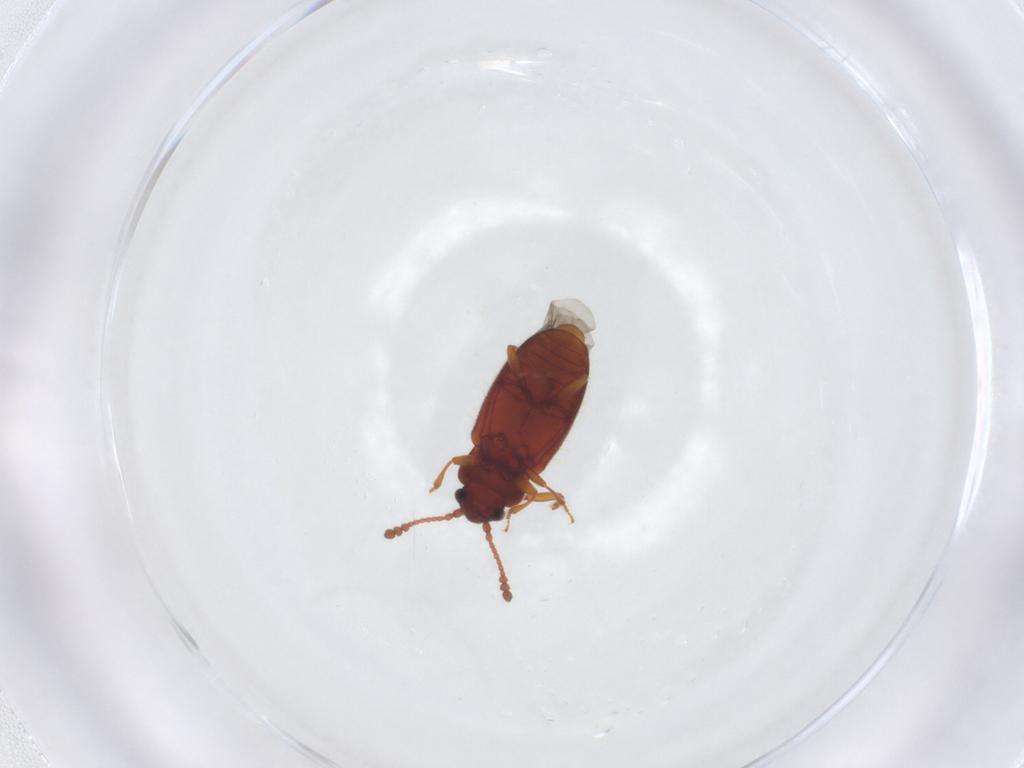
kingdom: Animalia
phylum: Arthropoda
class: Insecta
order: Coleoptera
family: Cryptophagidae
